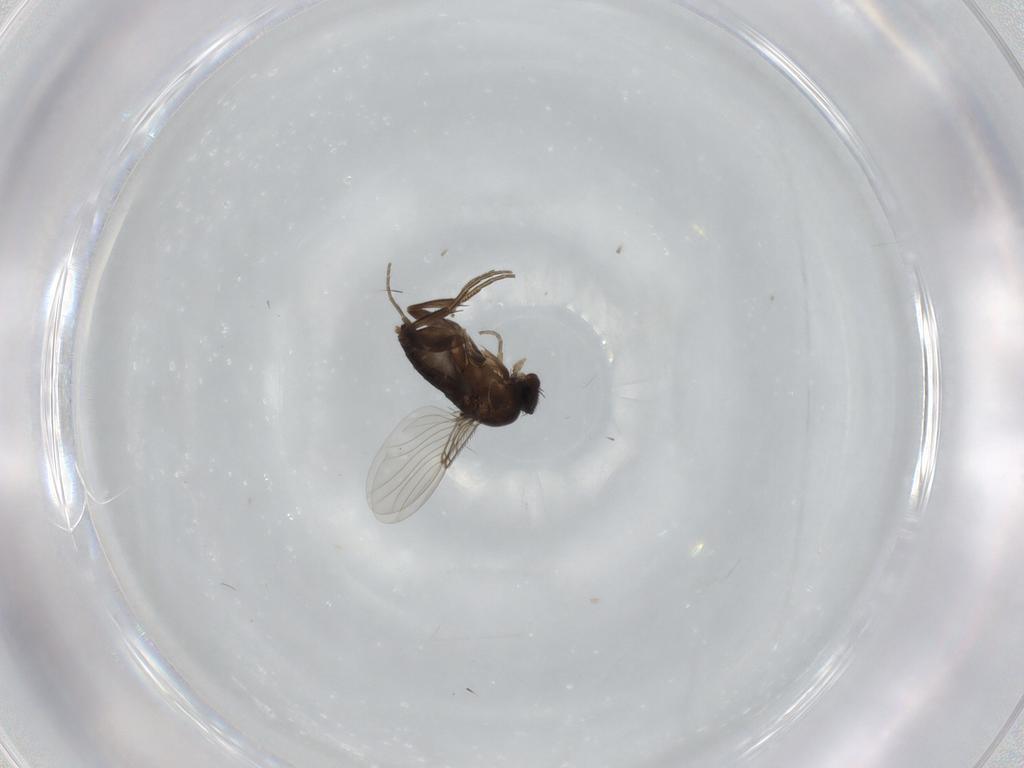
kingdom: Animalia
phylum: Arthropoda
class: Insecta
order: Diptera
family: Phoridae
